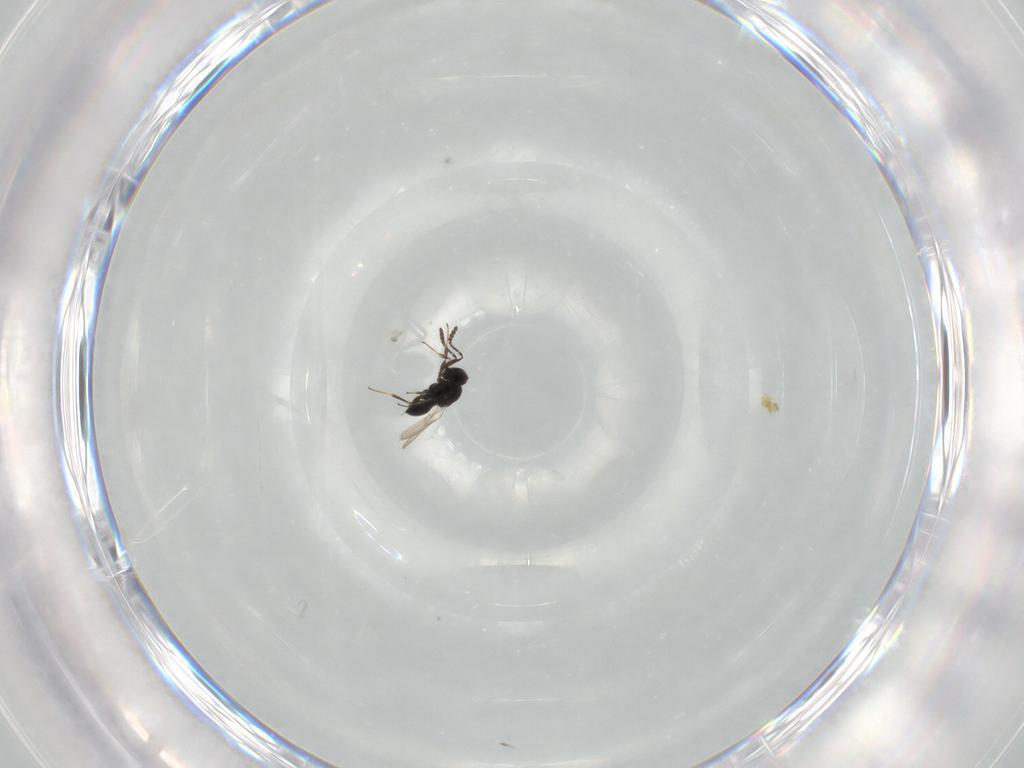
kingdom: Animalia
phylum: Arthropoda
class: Insecta
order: Hymenoptera
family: Scelionidae
